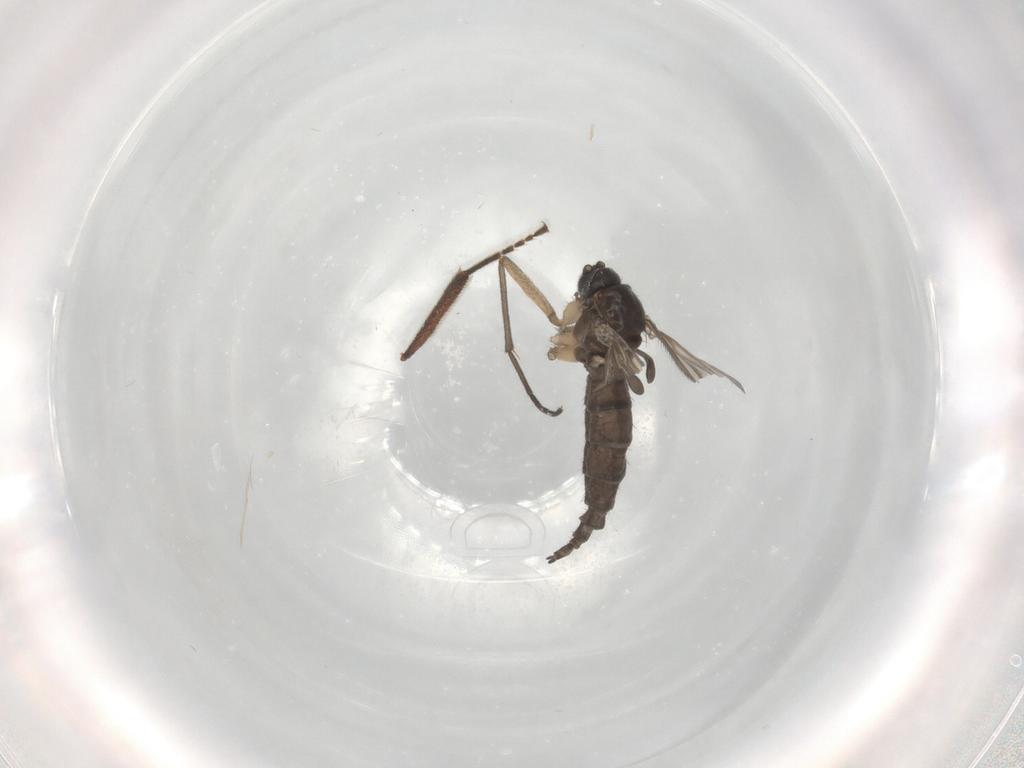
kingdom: Animalia
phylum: Arthropoda
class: Insecta
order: Diptera
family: Sciaridae
